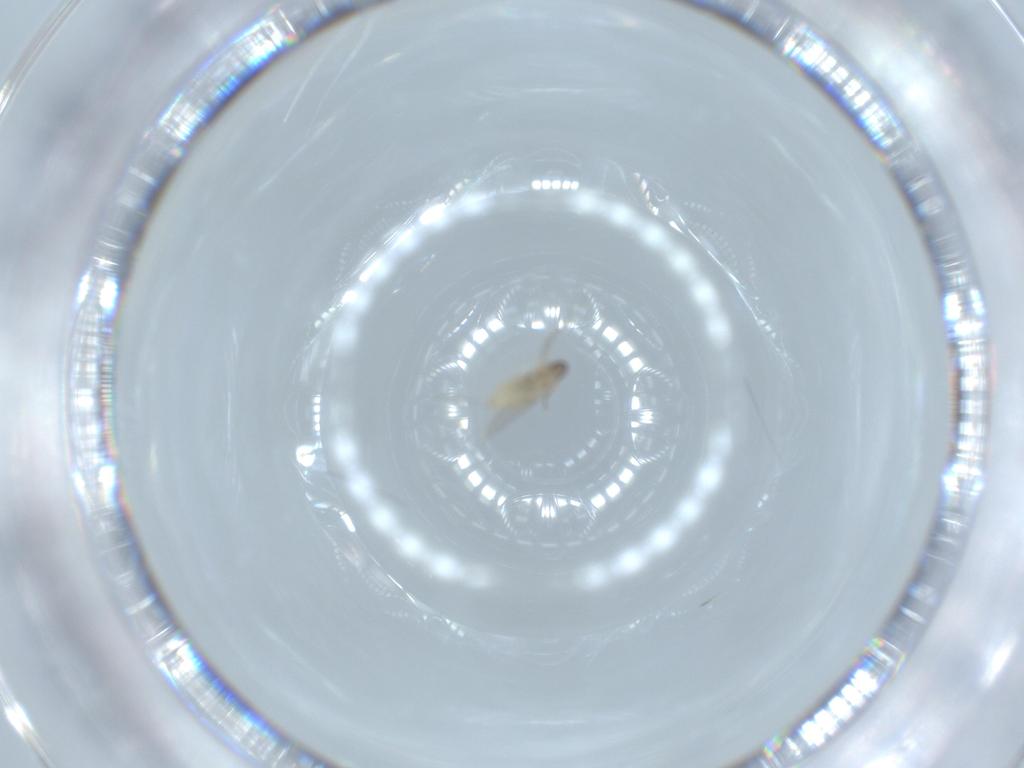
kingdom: Animalia
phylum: Arthropoda
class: Insecta
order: Diptera
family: Cecidomyiidae
